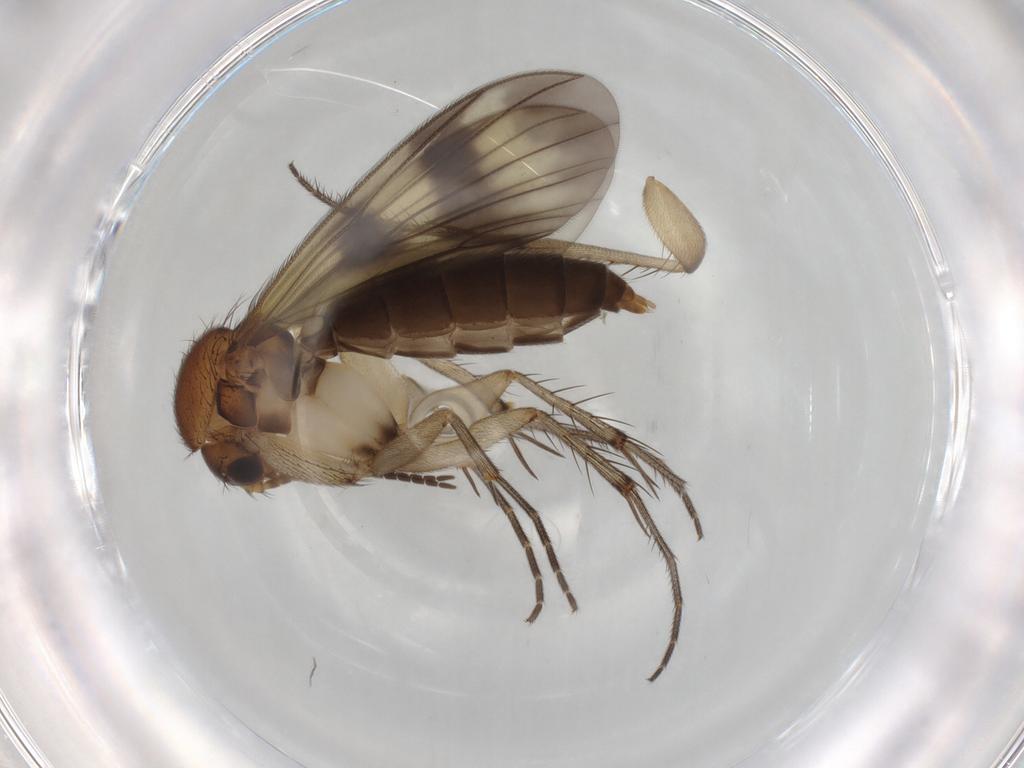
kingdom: Animalia
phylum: Arthropoda
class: Insecta
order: Diptera
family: Mycetophilidae
